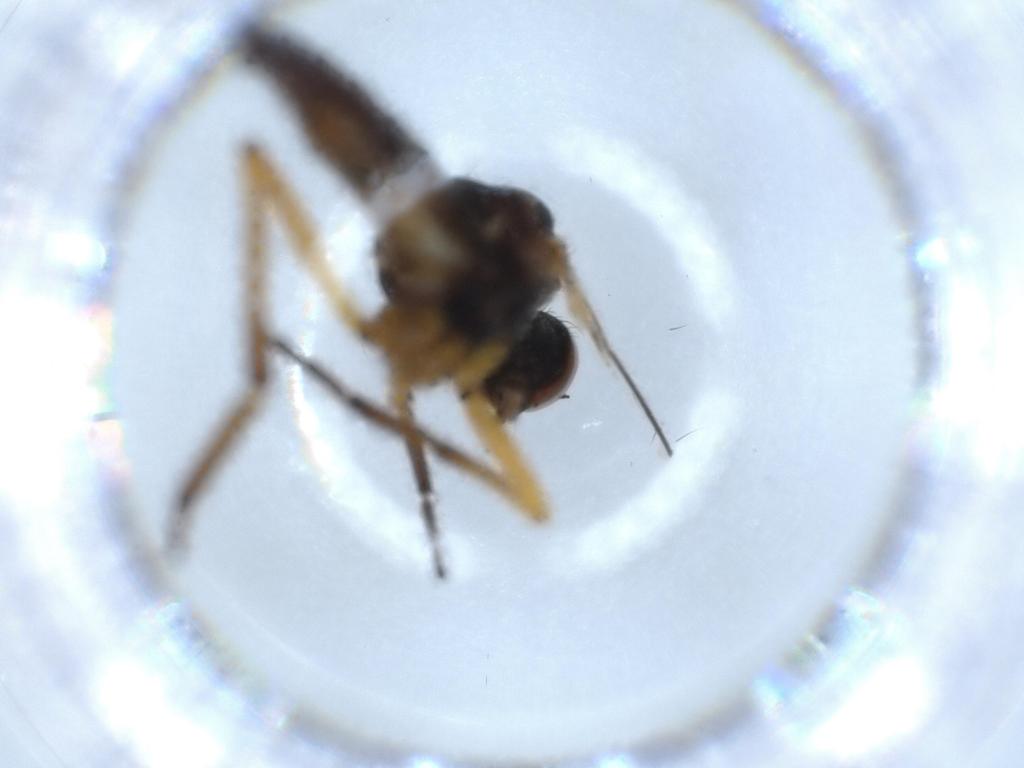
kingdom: Animalia
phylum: Arthropoda
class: Insecta
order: Diptera
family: Empididae
